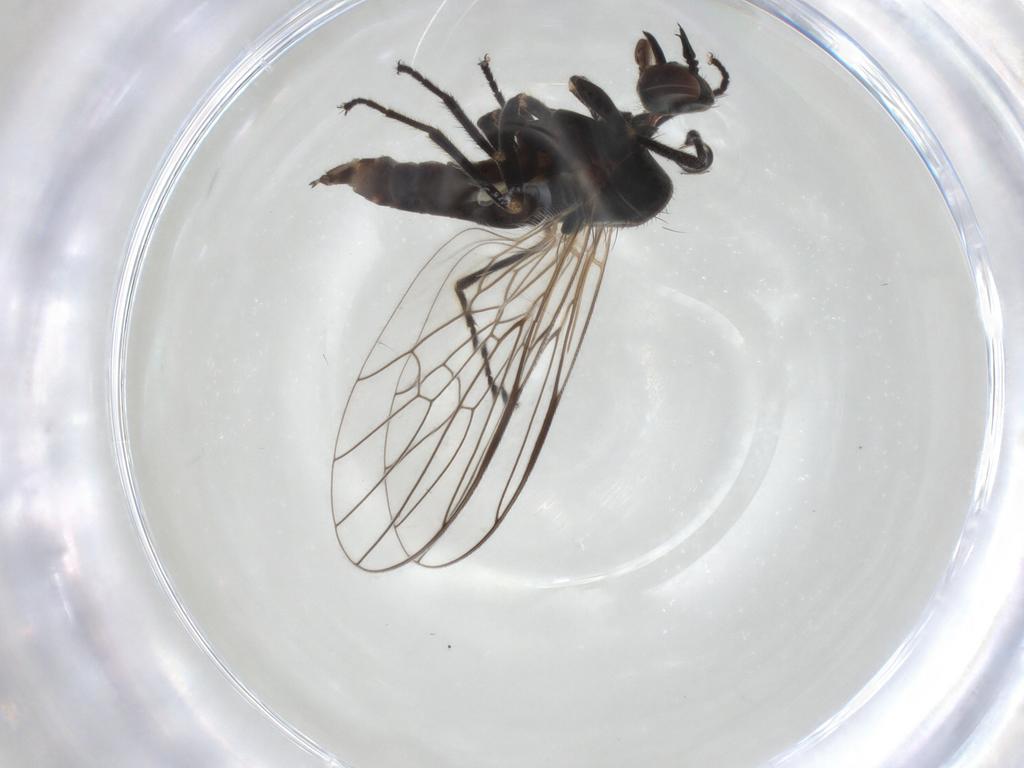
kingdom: Animalia
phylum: Arthropoda
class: Insecta
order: Diptera
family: Empididae
